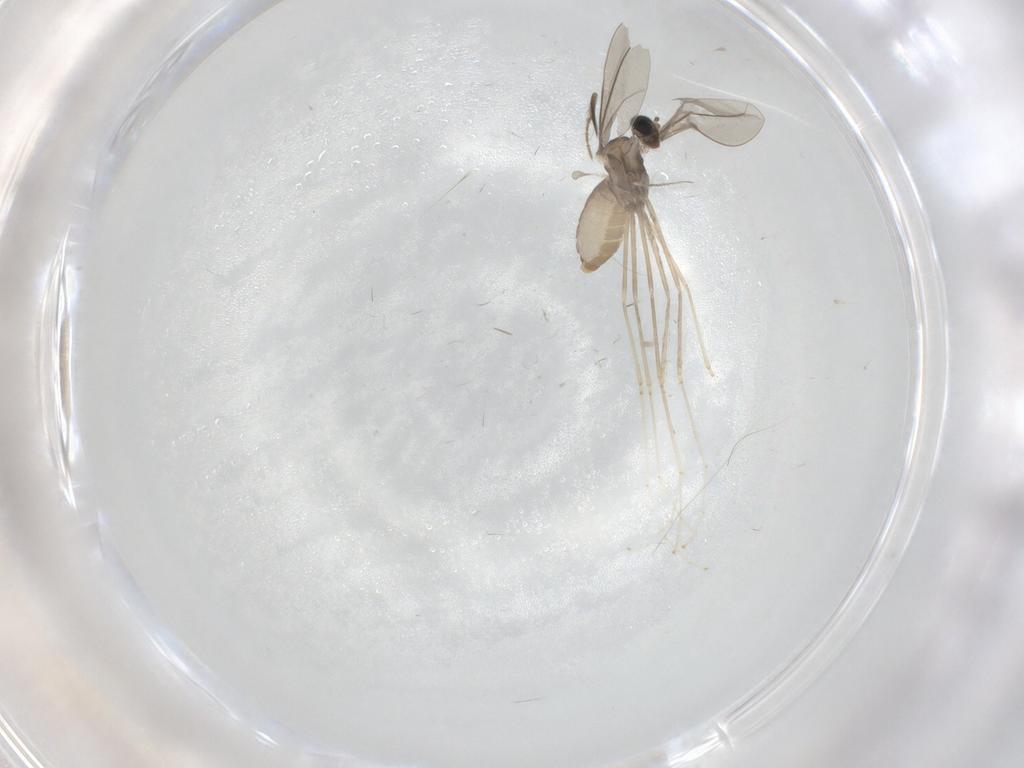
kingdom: Animalia
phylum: Arthropoda
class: Insecta
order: Diptera
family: Cecidomyiidae
